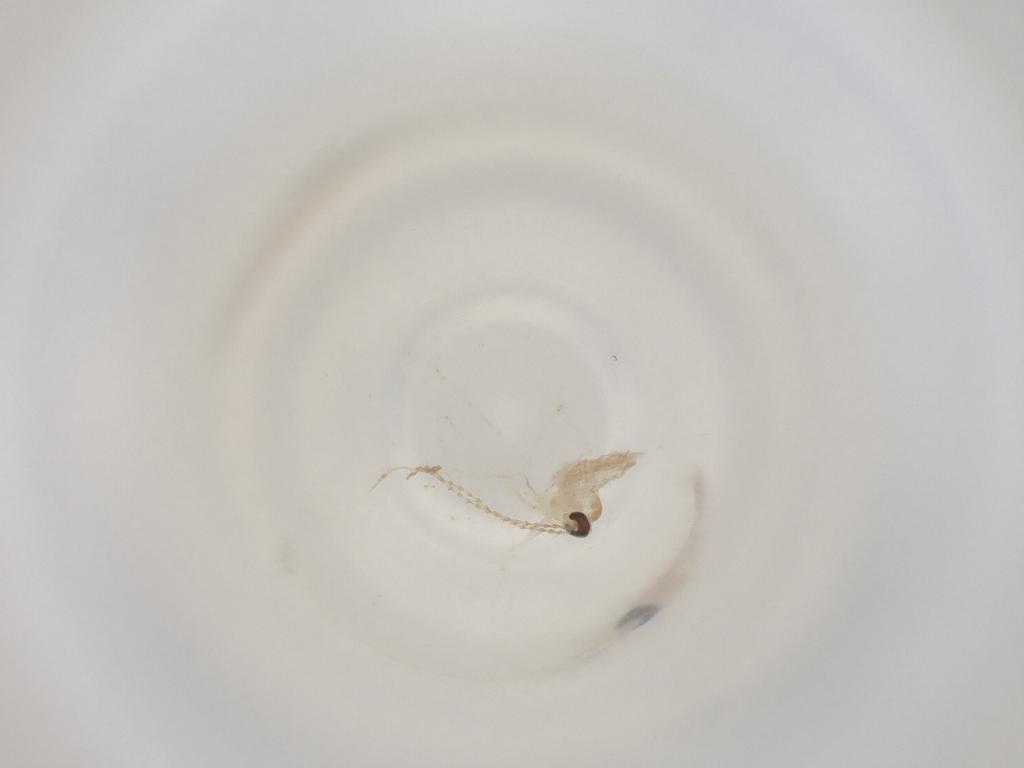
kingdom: Animalia
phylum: Arthropoda
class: Insecta
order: Diptera
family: Cecidomyiidae
